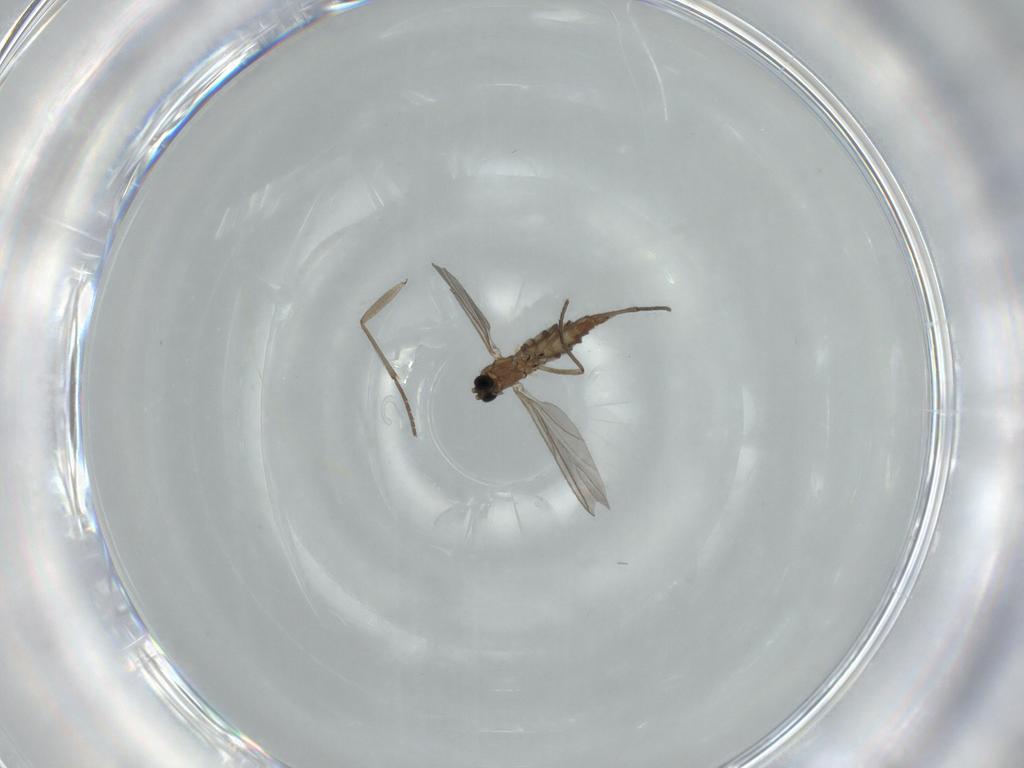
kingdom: Animalia
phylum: Arthropoda
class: Insecta
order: Diptera
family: Sciaridae
